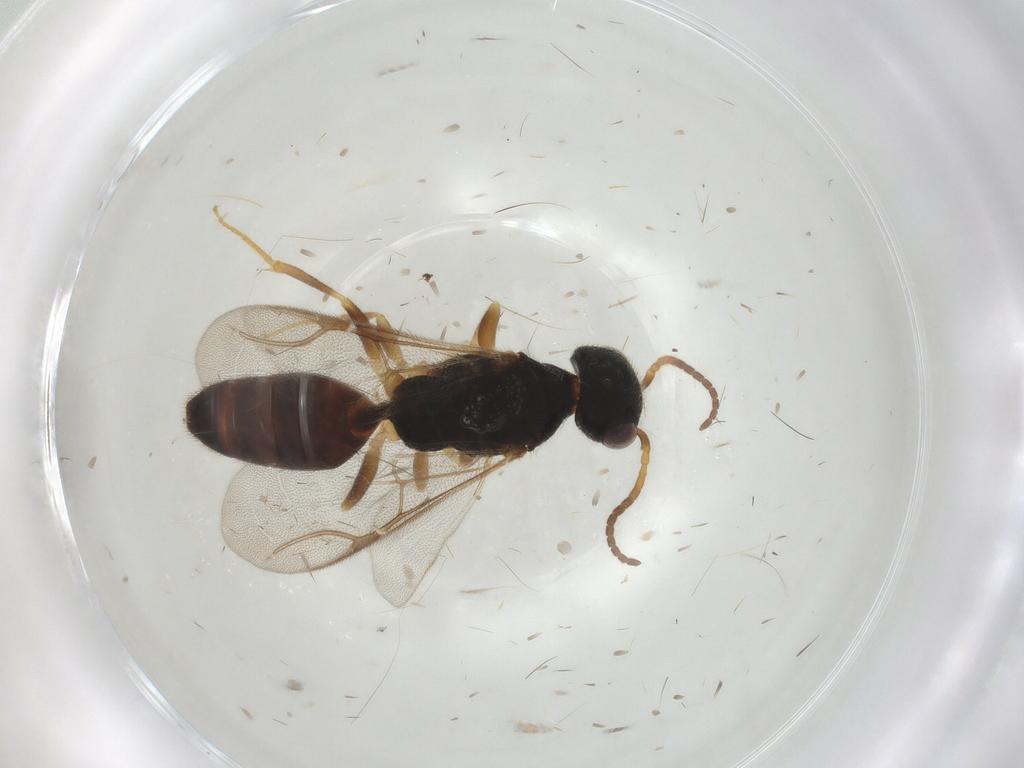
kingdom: Animalia
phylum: Arthropoda
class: Insecta
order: Hymenoptera
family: Bethylidae
